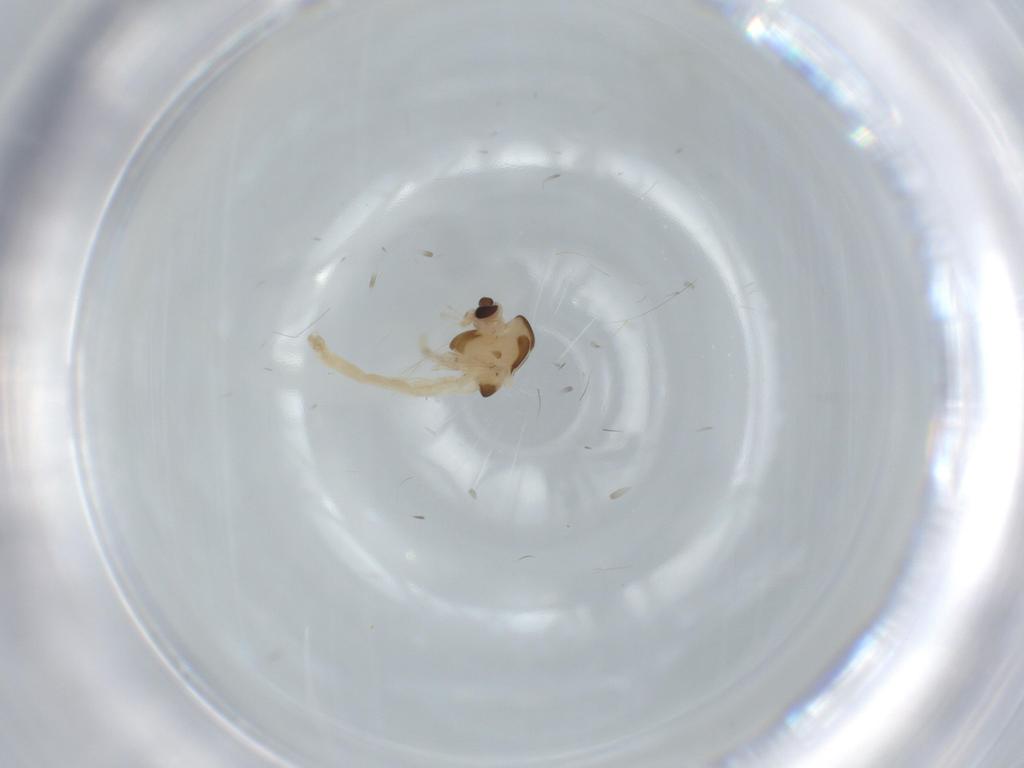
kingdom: Animalia
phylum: Arthropoda
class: Insecta
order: Diptera
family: Chironomidae
